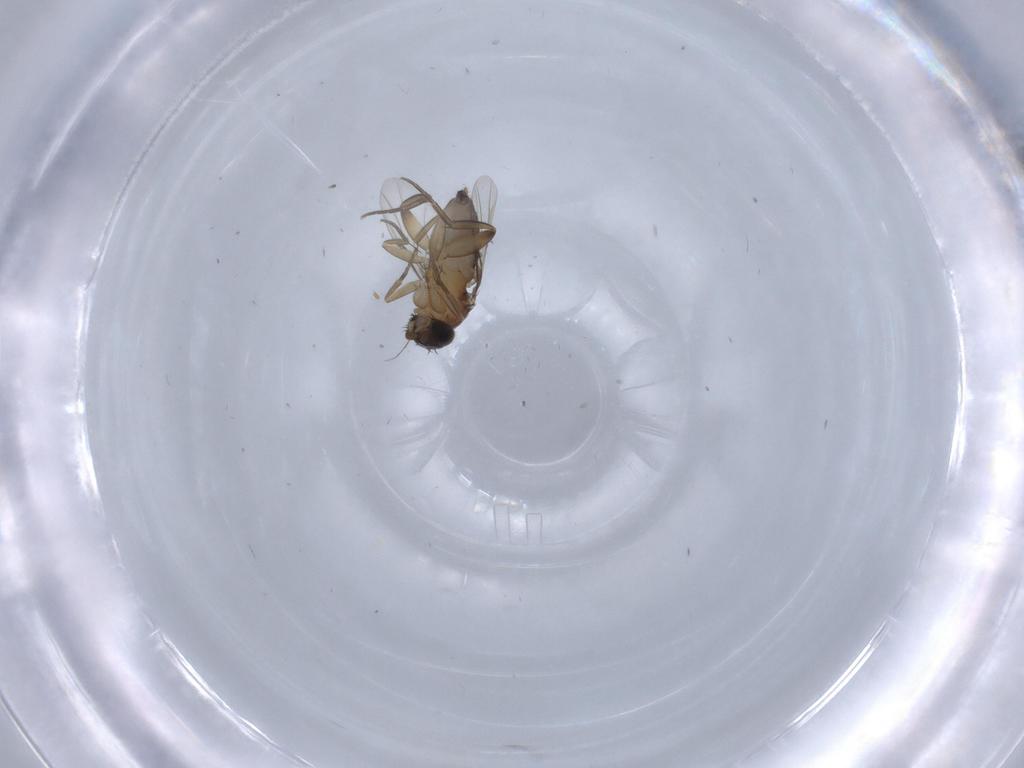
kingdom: Animalia
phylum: Arthropoda
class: Insecta
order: Diptera
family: Phoridae
